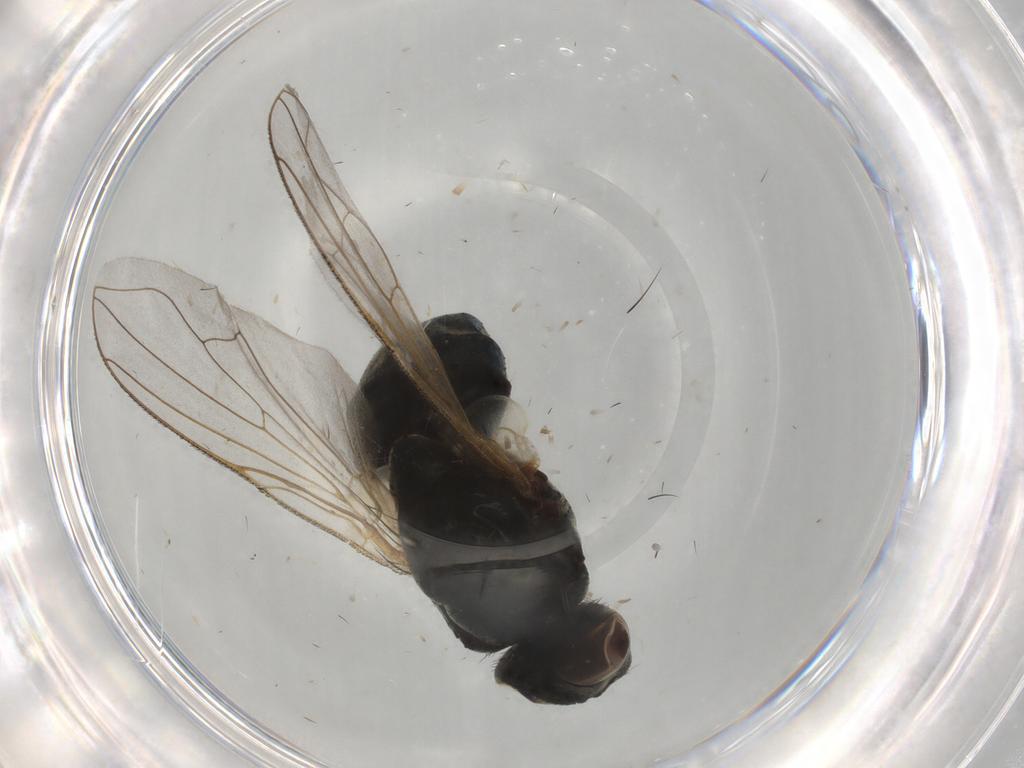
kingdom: Animalia
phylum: Arthropoda
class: Insecta
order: Diptera
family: Muscidae
